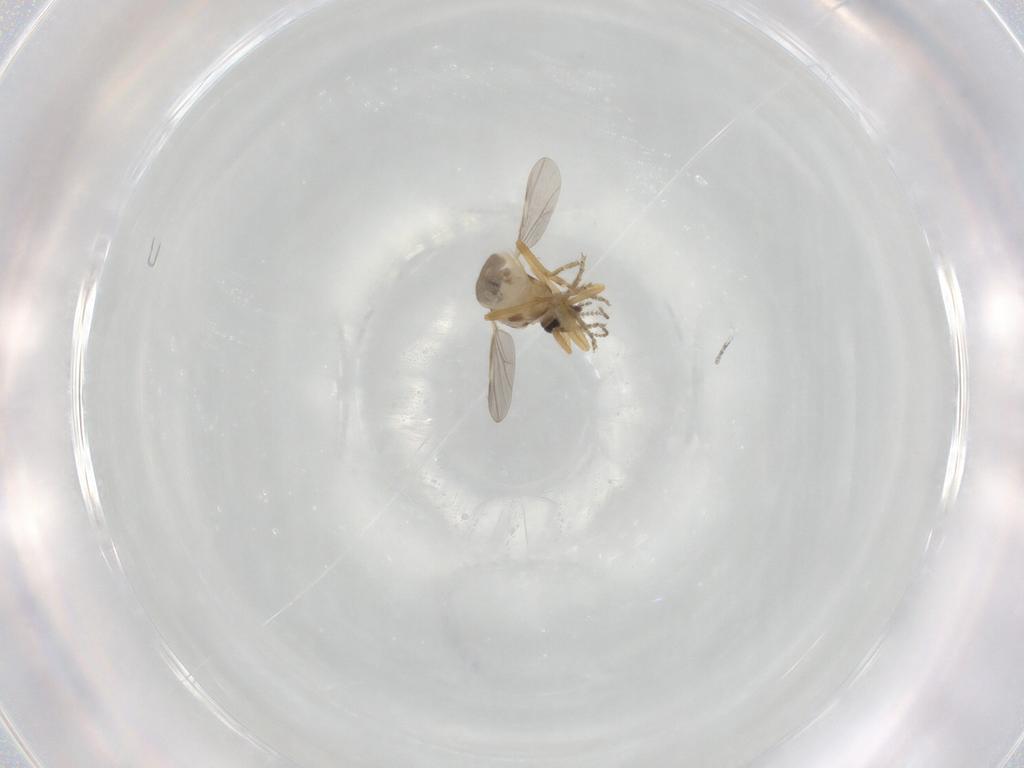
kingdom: Animalia
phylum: Arthropoda
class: Insecta
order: Diptera
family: Ceratopogonidae
